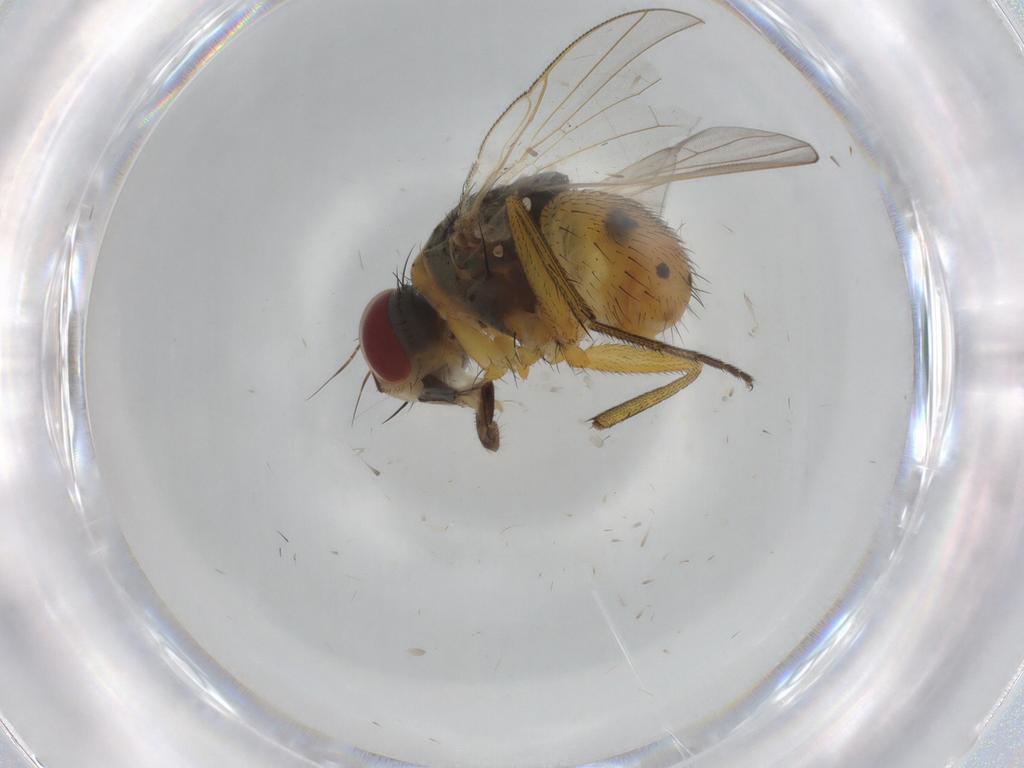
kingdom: Animalia
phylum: Arthropoda
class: Insecta
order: Diptera
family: Muscidae
